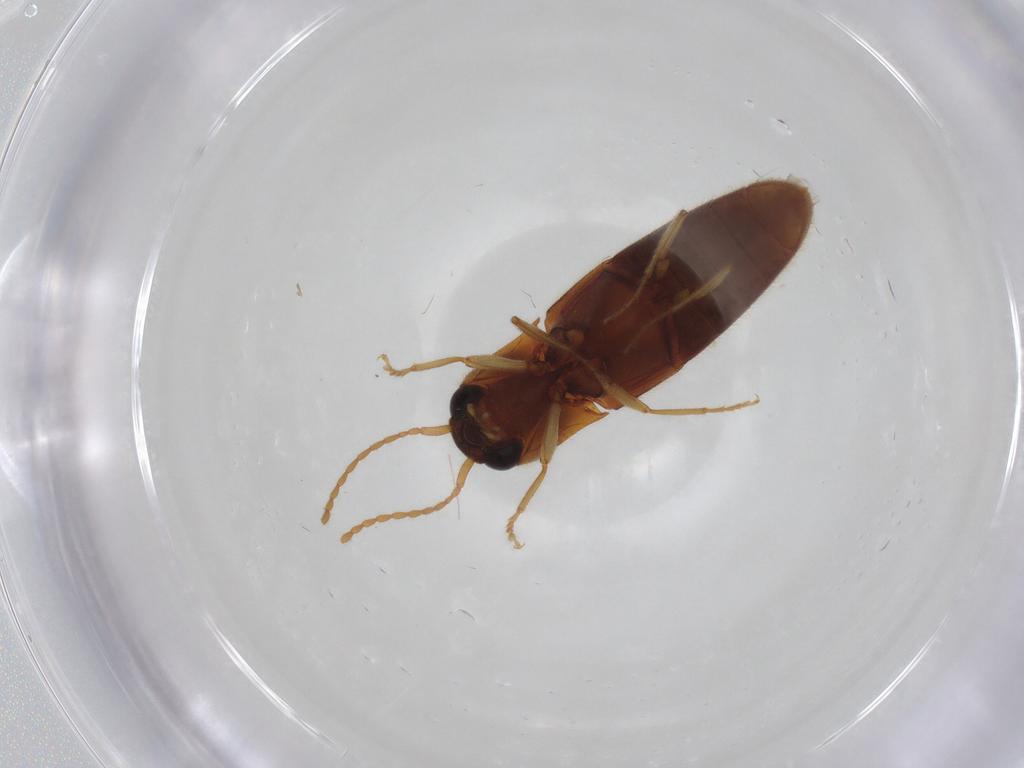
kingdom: Animalia
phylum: Arthropoda
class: Insecta
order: Coleoptera
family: Elateridae
